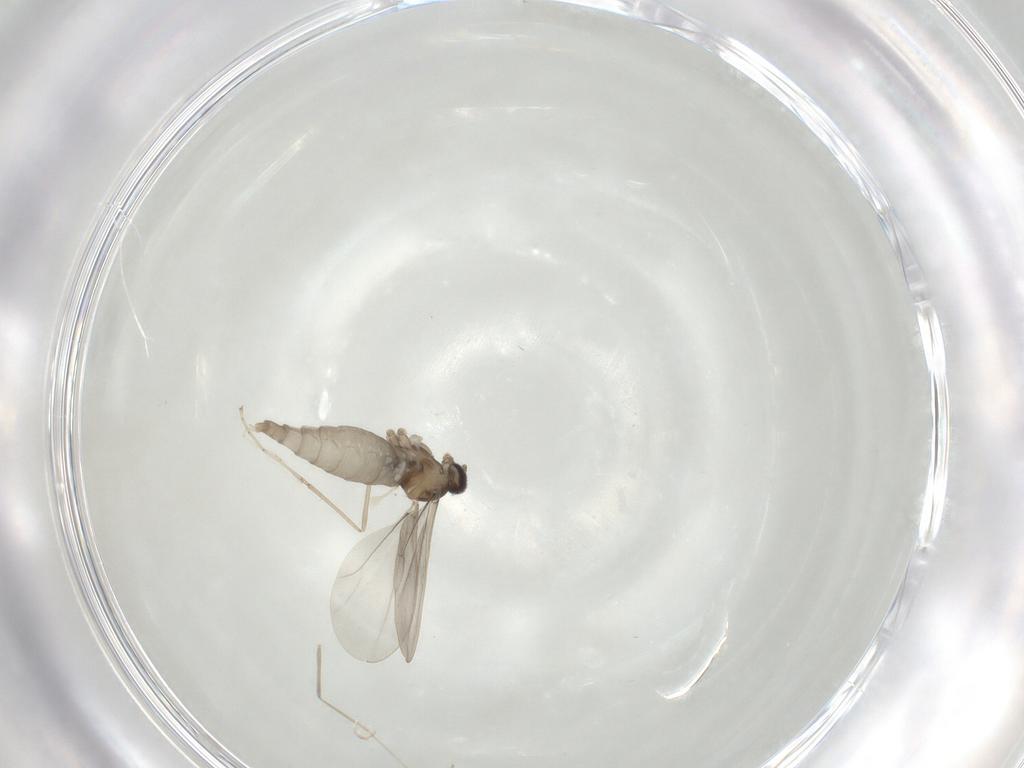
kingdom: Animalia
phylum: Arthropoda
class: Insecta
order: Diptera
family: Cecidomyiidae
